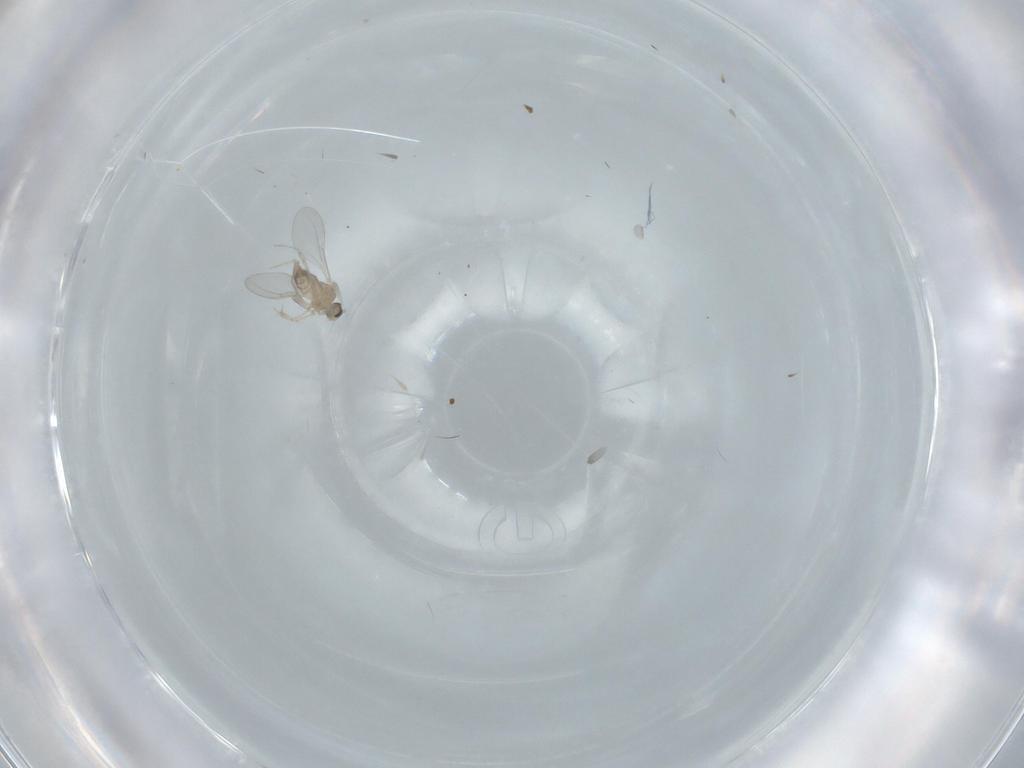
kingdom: Animalia
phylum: Arthropoda
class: Insecta
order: Diptera
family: Cecidomyiidae
